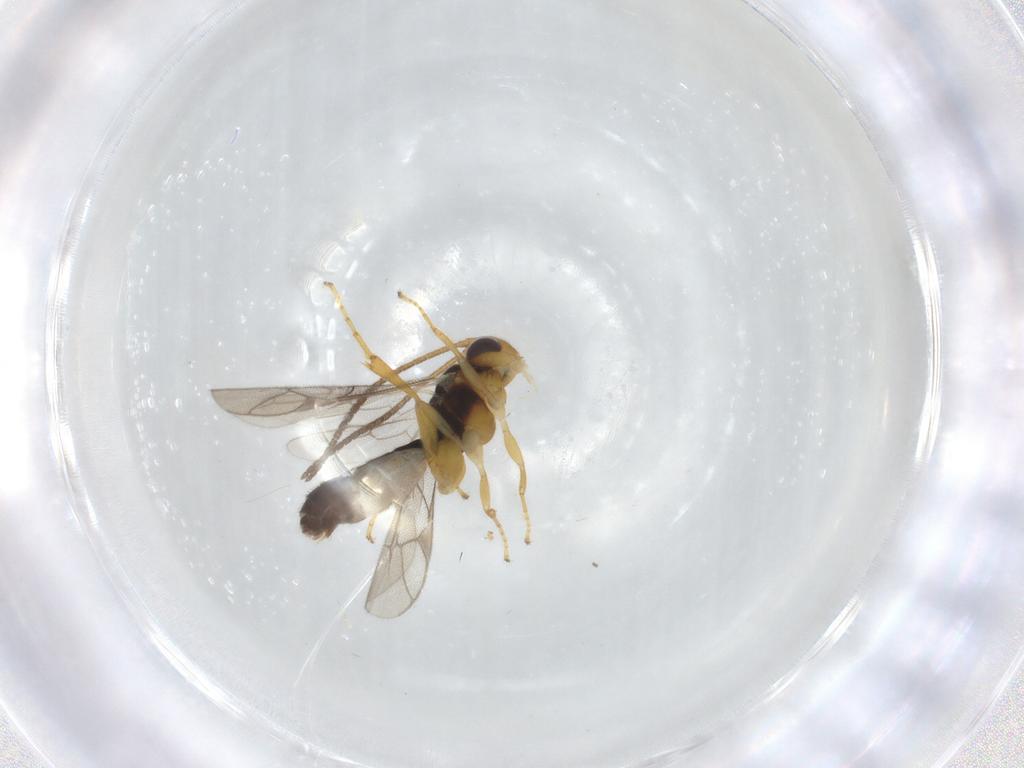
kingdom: Animalia
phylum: Arthropoda
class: Insecta
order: Hymenoptera
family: Ichneumonidae
